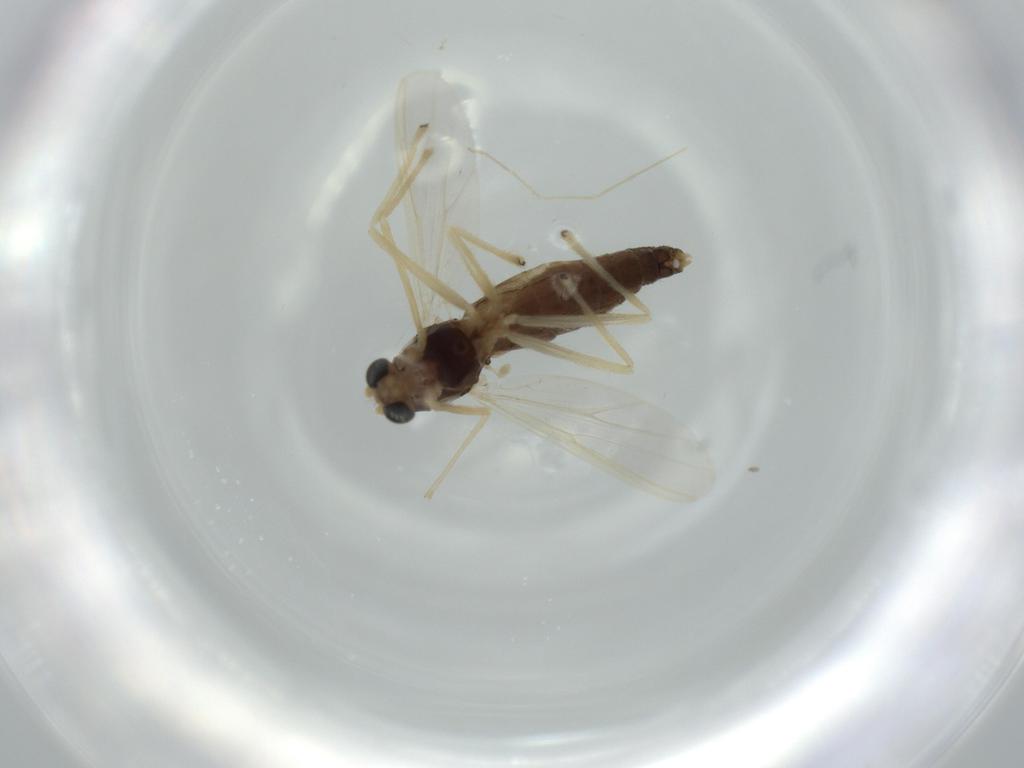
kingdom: Animalia
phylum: Arthropoda
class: Insecta
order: Diptera
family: Chironomidae
